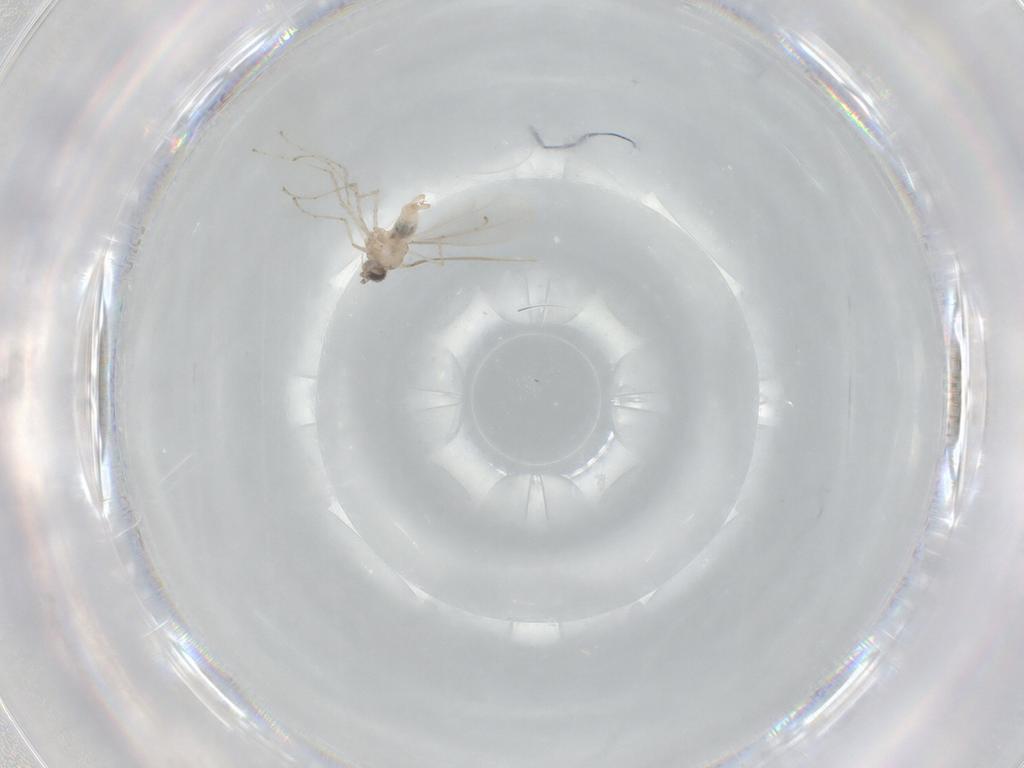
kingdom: Animalia
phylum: Arthropoda
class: Insecta
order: Diptera
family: Cecidomyiidae
